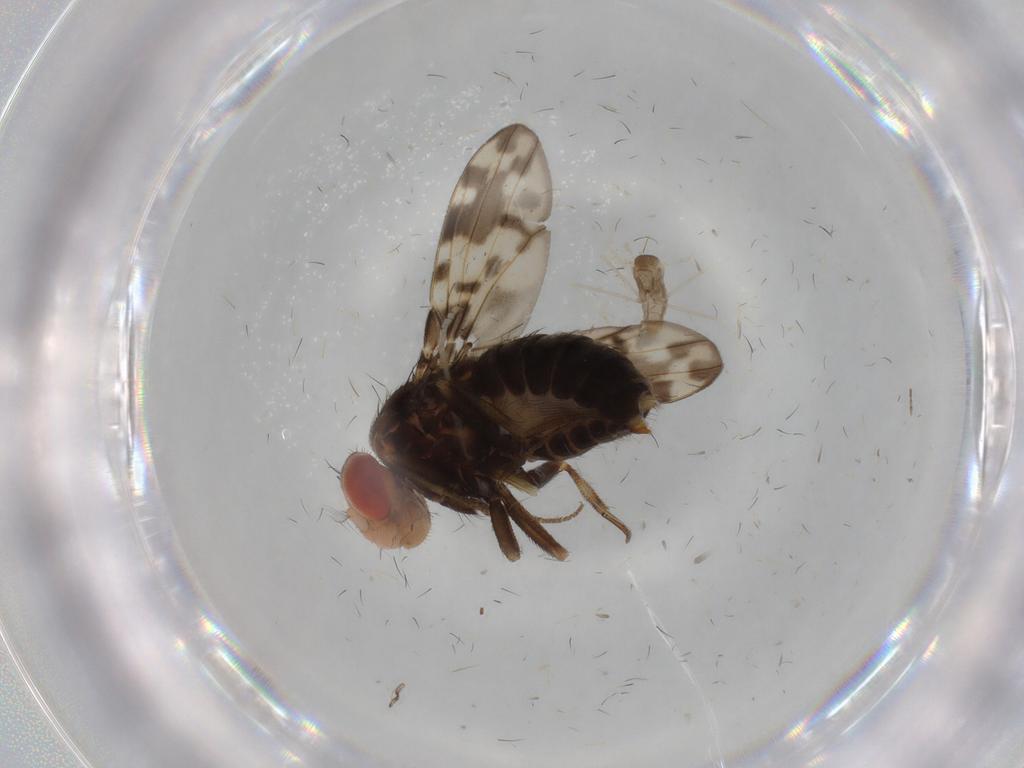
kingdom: Animalia
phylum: Arthropoda
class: Insecta
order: Diptera
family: Drosophilidae
